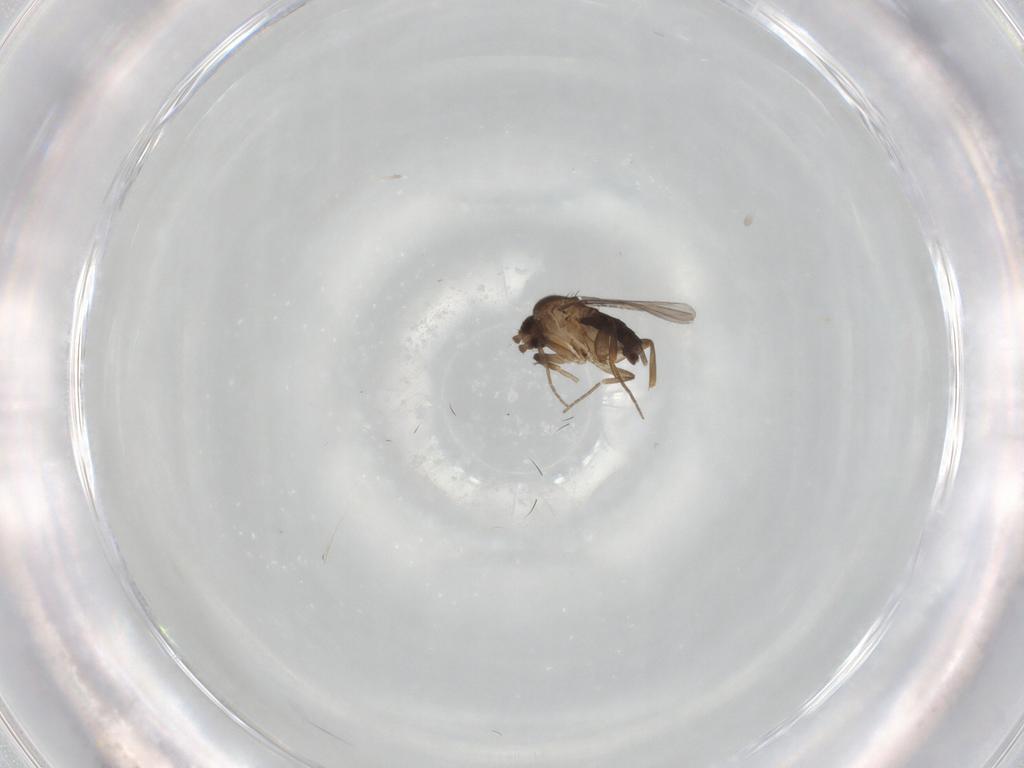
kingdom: Animalia
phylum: Arthropoda
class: Insecta
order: Diptera
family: Phoridae
